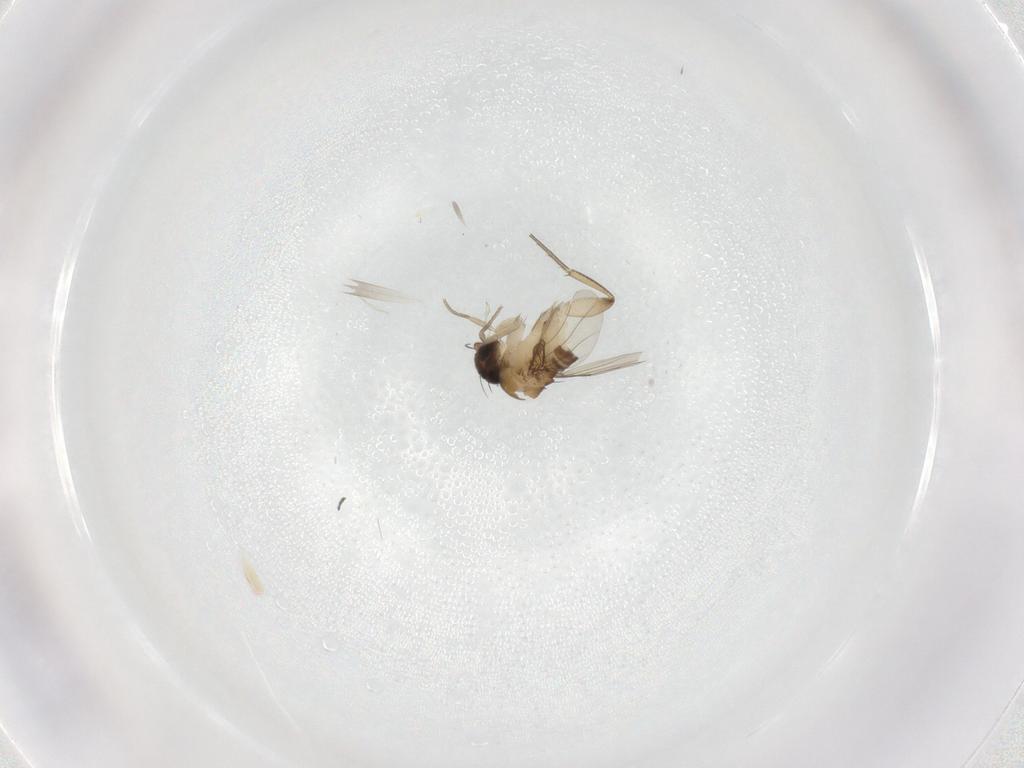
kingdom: Animalia
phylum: Arthropoda
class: Insecta
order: Diptera
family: Phoridae
